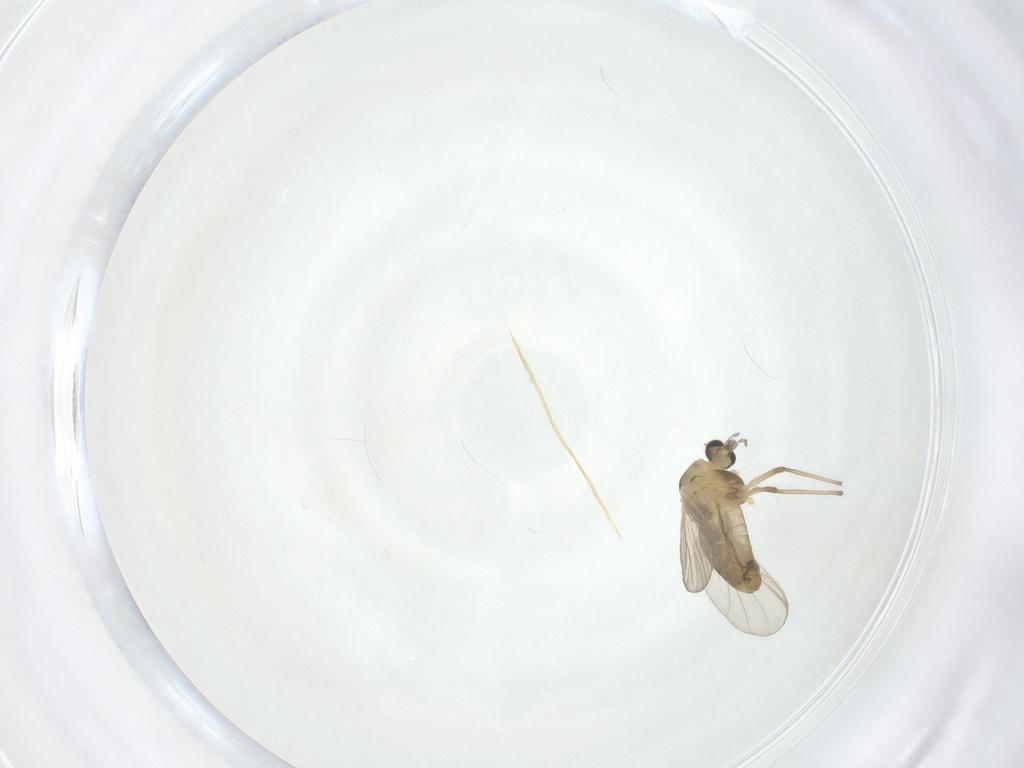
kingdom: Animalia
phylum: Arthropoda
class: Insecta
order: Diptera
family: Chironomidae
